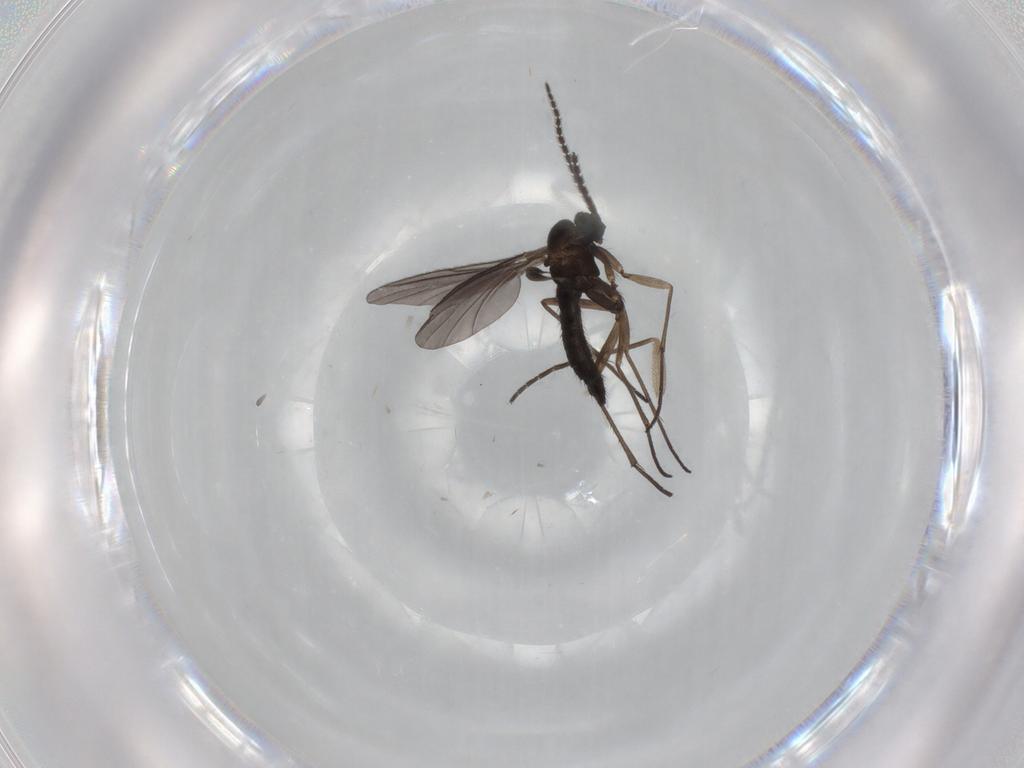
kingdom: Animalia
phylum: Arthropoda
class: Insecta
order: Diptera
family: Sciaridae
